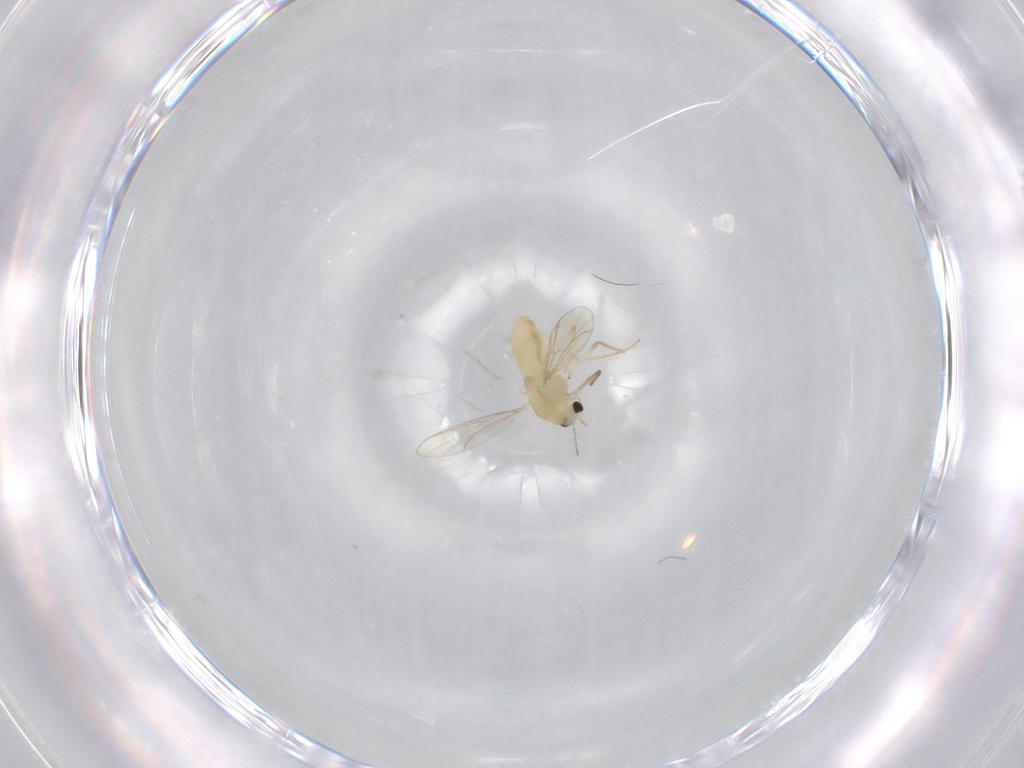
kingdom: Animalia
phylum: Arthropoda
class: Insecta
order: Diptera
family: Chironomidae
